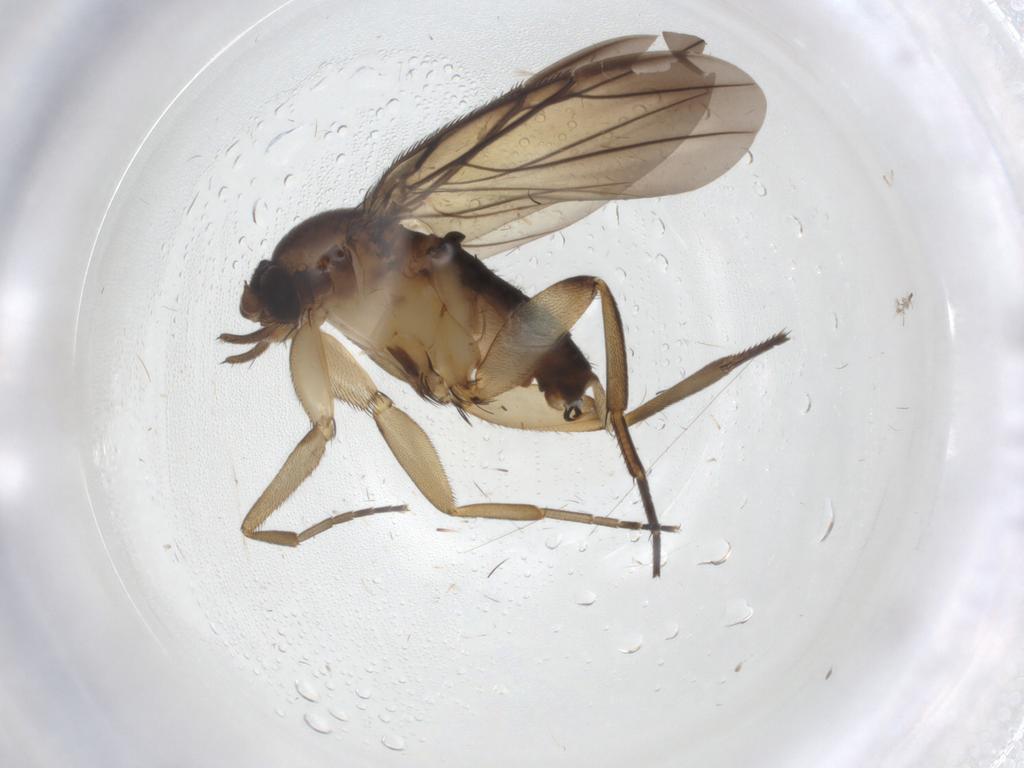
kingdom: Animalia
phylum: Arthropoda
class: Insecta
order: Diptera
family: Phoridae
